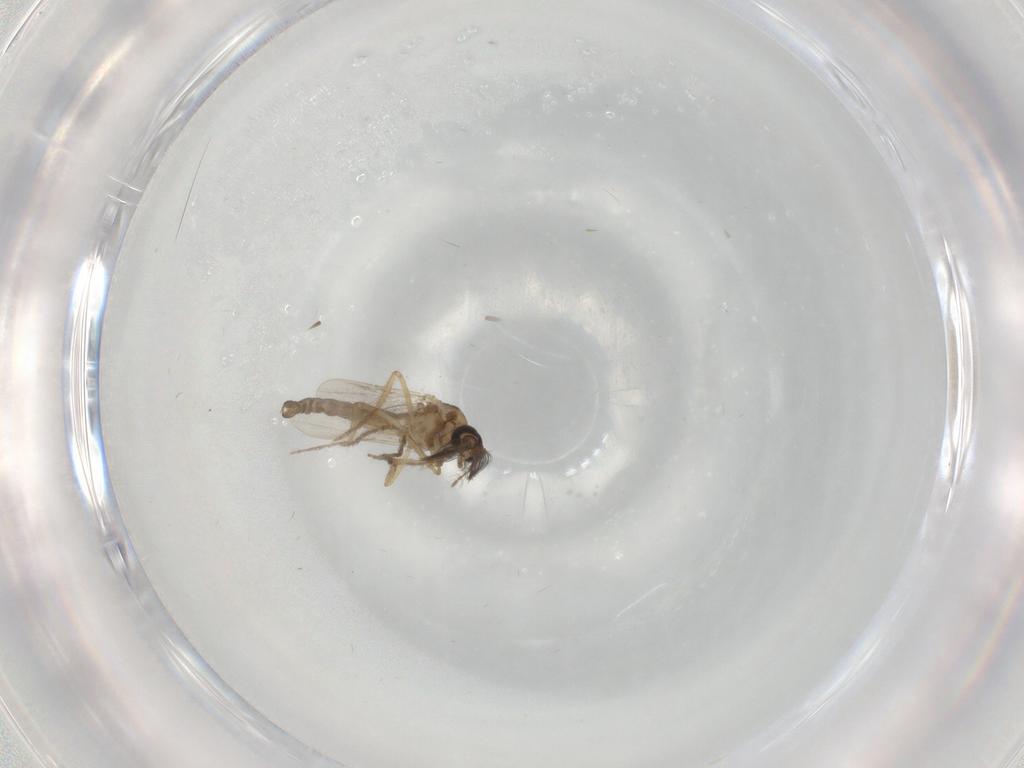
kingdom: Animalia
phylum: Arthropoda
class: Insecta
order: Diptera
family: Ceratopogonidae
